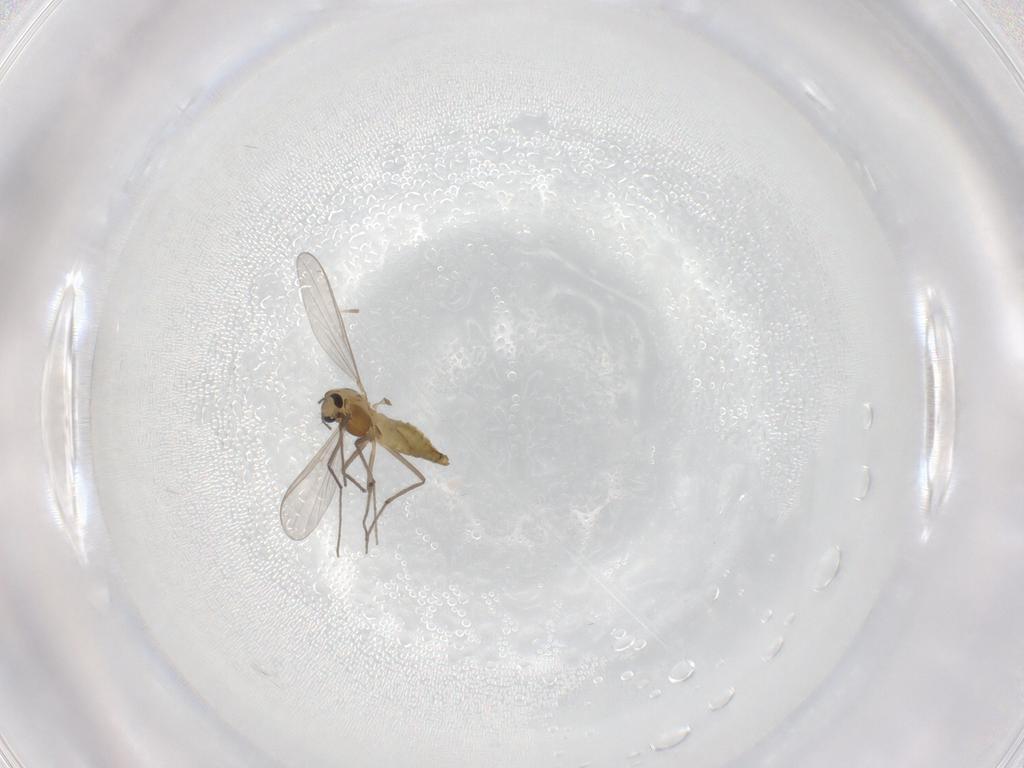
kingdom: Animalia
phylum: Arthropoda
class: Insecta
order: Diptera
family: Chironomidae
